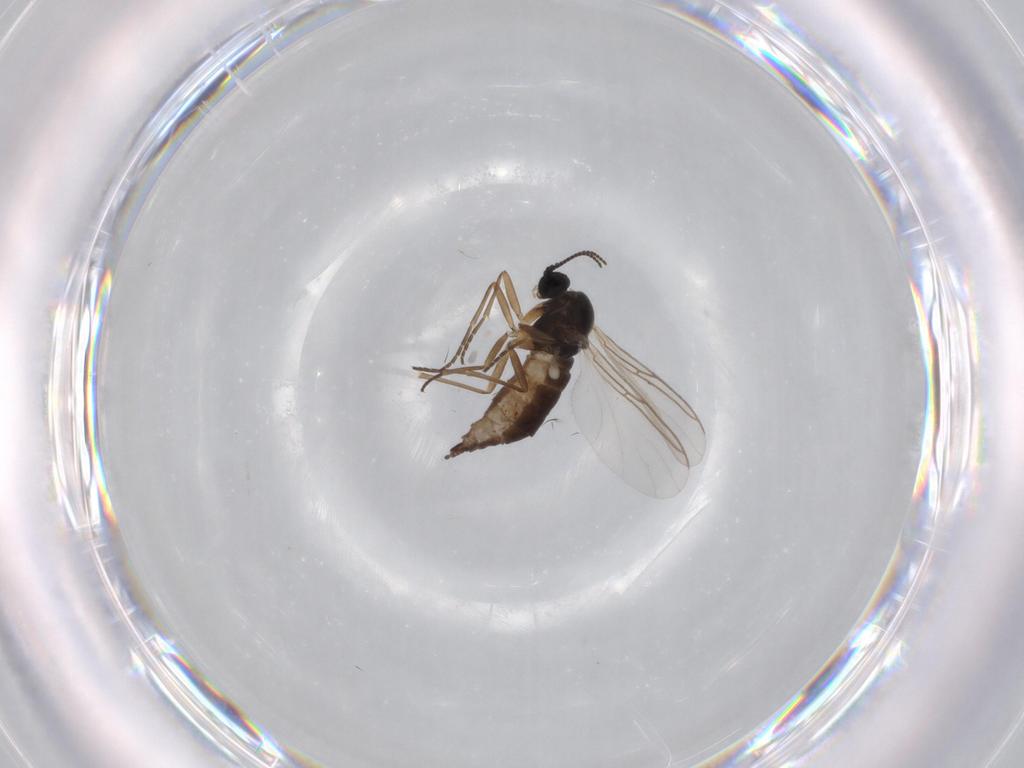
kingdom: Animalia
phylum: Arthropoda
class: Insecta
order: Diptera
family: Sciaridae
